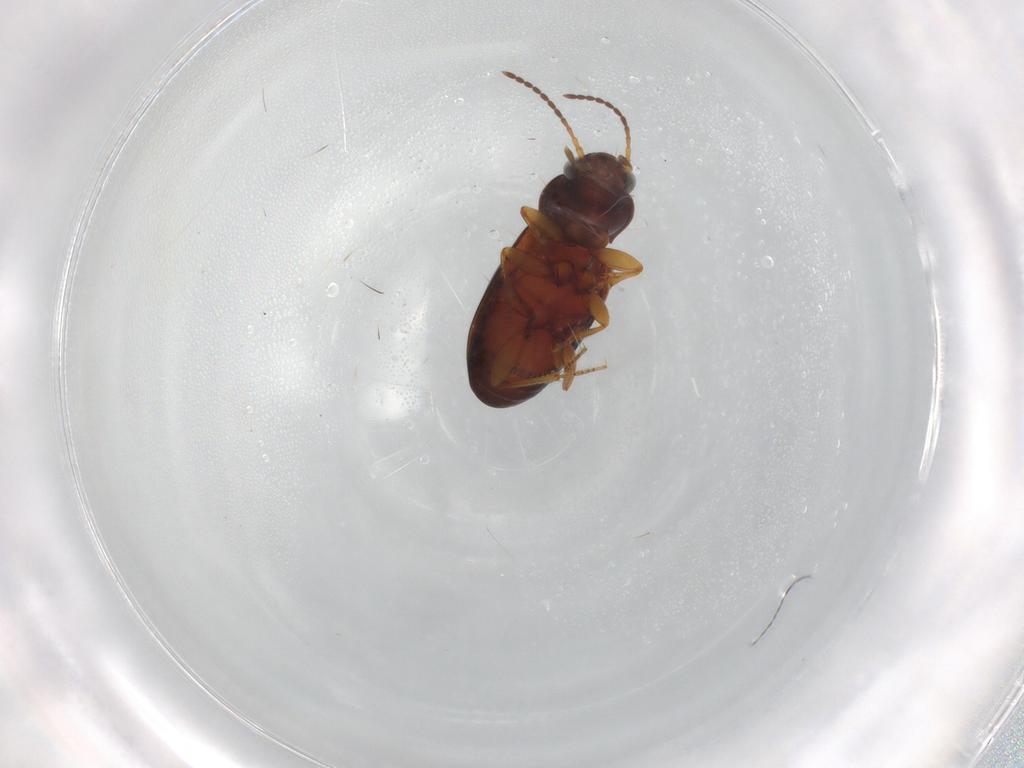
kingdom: Animalia
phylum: Arthropoda
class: Insecta
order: Coleoptera
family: Carabidae
